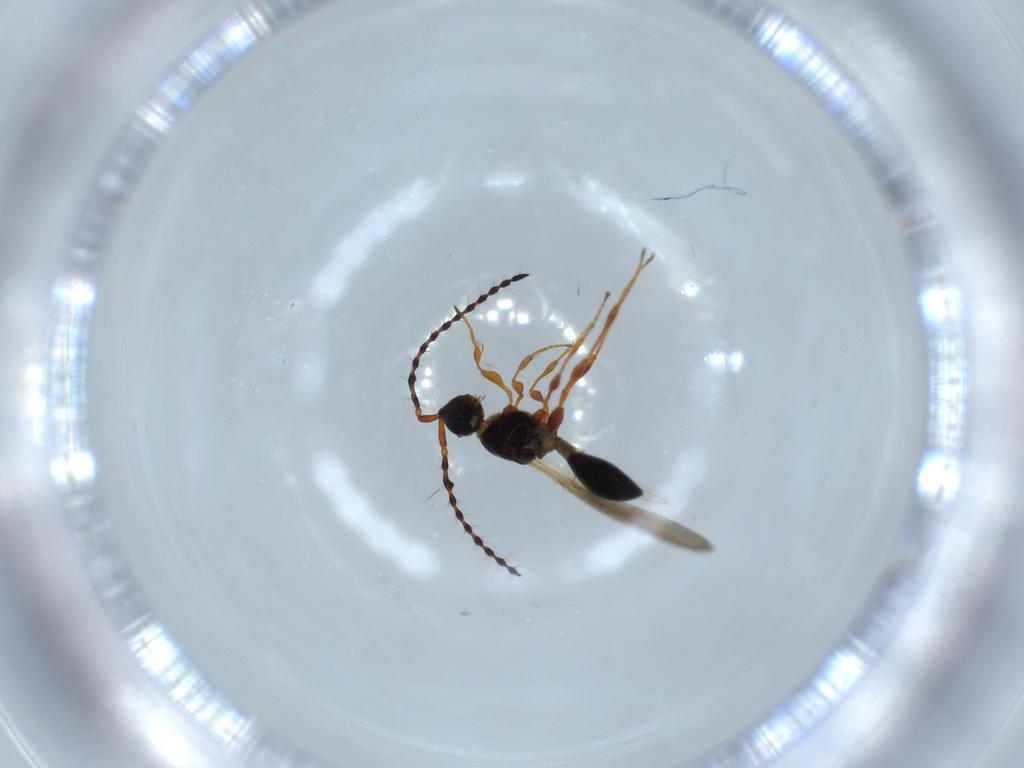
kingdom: Animalia
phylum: Arthropoda
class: Insecta
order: Hymenoptera
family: Diapriidae
